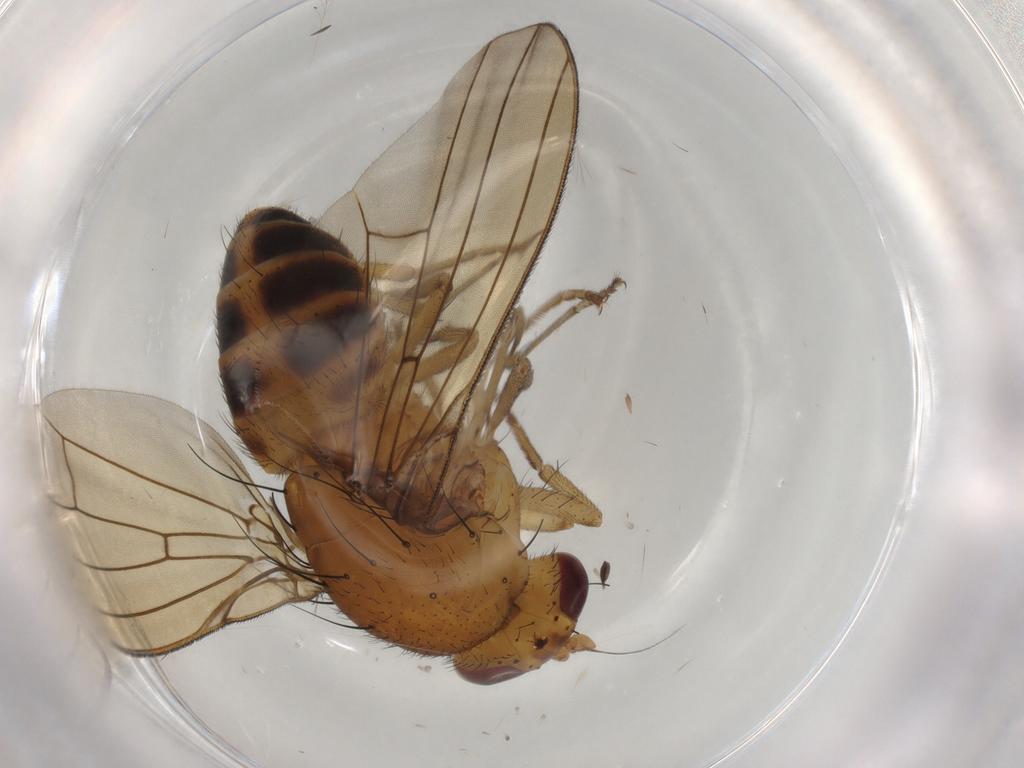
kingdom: Animalia
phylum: Arthropoda
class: Insecta
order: Diptera
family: Sciaridae
